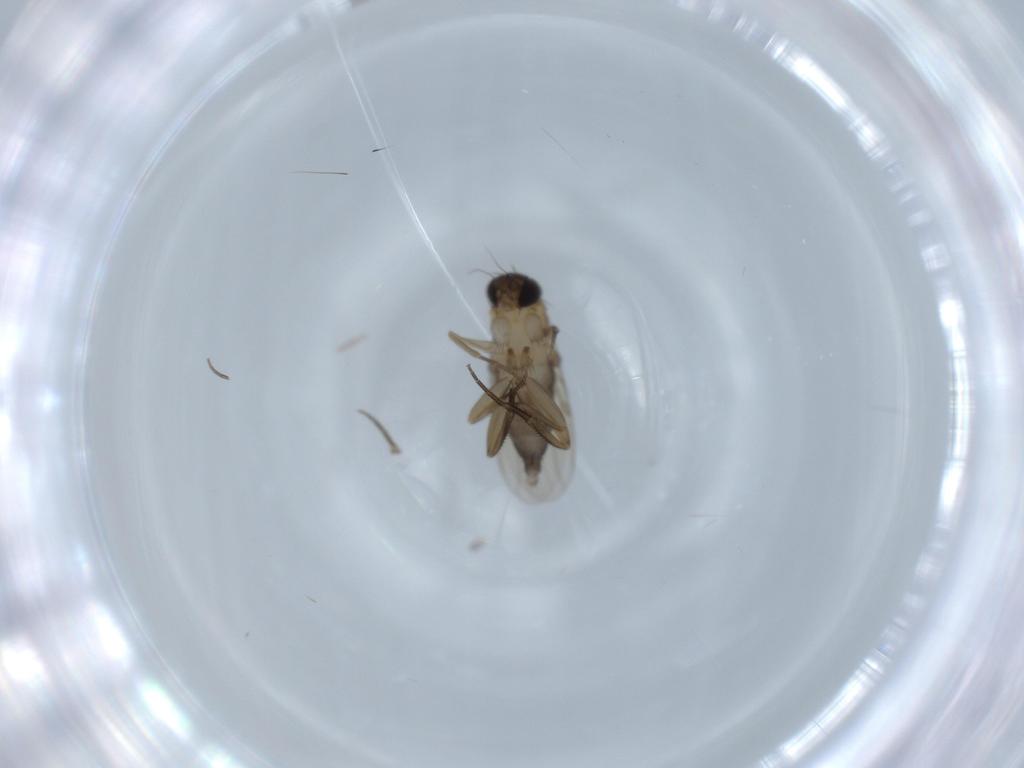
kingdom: Animalia
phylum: Arthropoda
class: Insecta
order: Diptera
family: Phoridae
